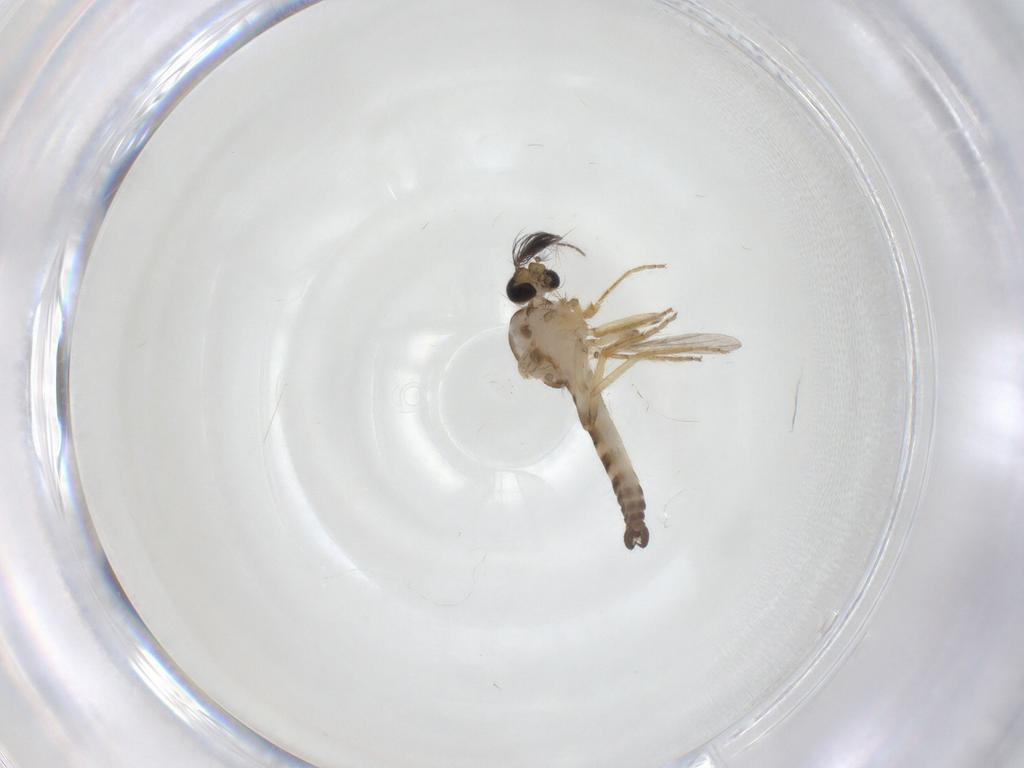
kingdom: Animalia
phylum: Arthropoda
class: Insecta
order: Diptera
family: Ceratopogonidae
